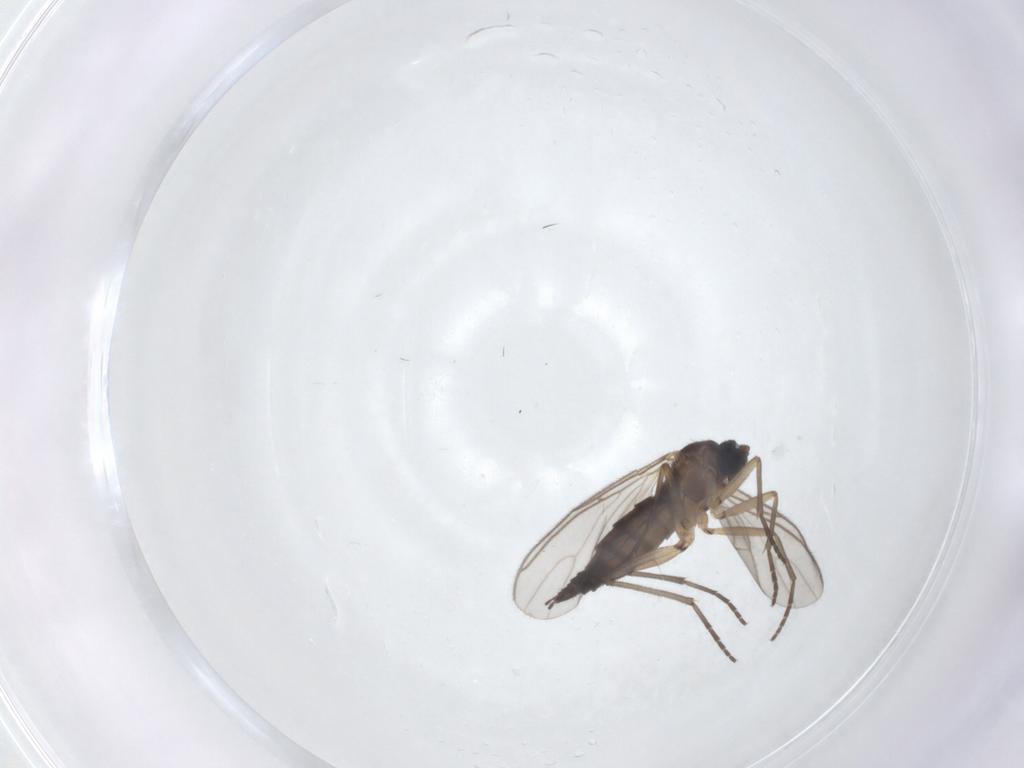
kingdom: Animalia
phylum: Arthropoda
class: Insecta
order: Diptera
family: Sciaridae
